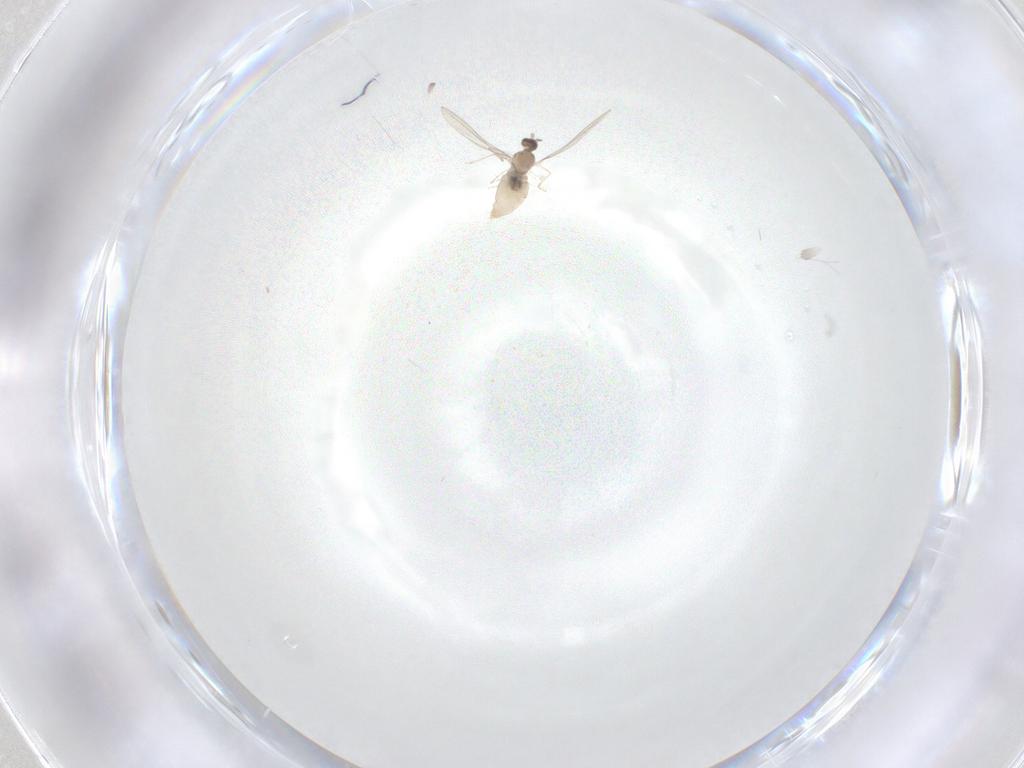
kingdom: Animalia
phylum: Arthropoda
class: Insecta
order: Diptera
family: Cecidomyiidae
